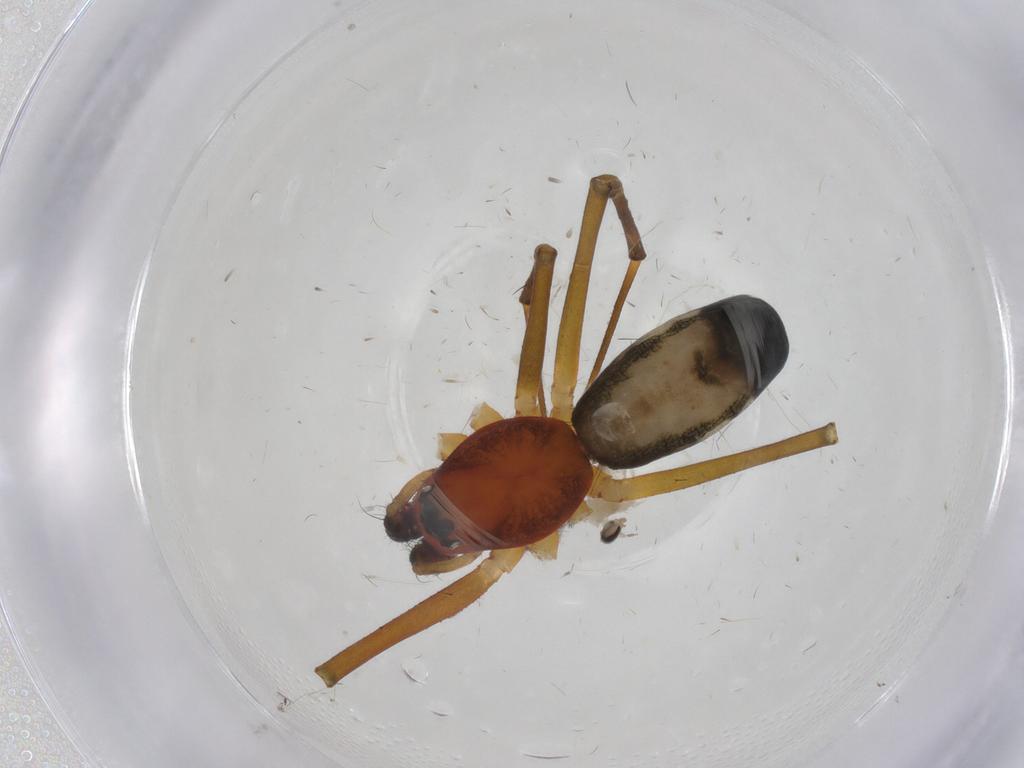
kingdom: Animalia
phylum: Arthropoda
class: Arachnida
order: Araneae
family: Linyphiidae
